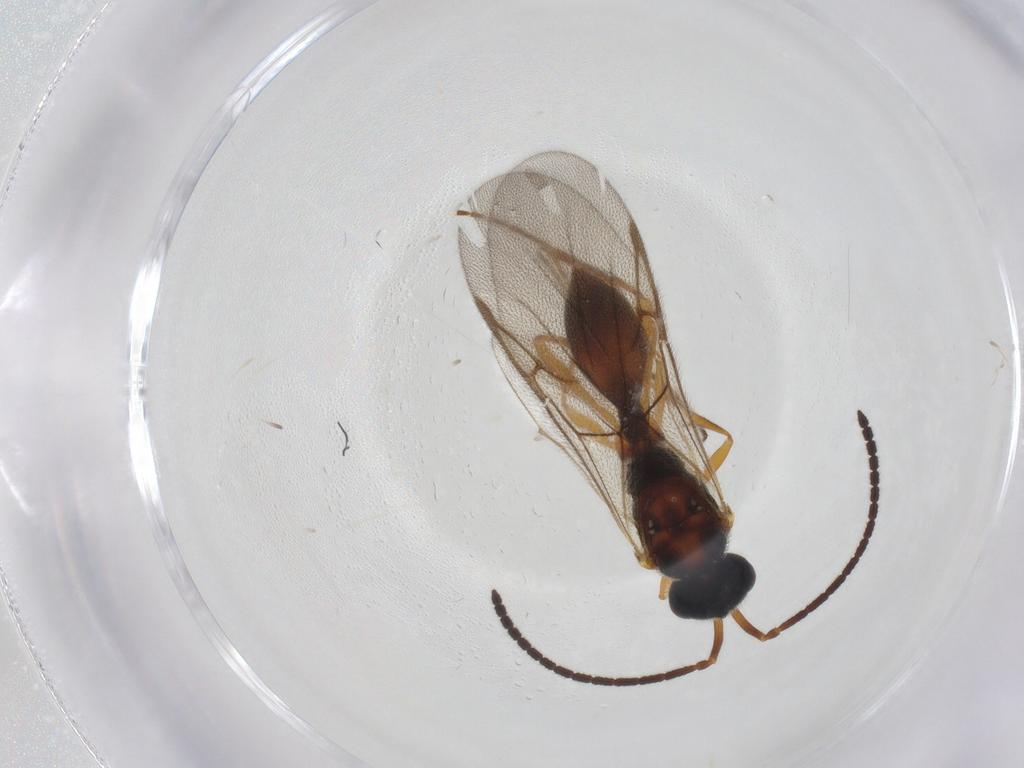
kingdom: Animalia
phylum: Arthropoda
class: Insecta
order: Hymenoptera
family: Diapriidae
